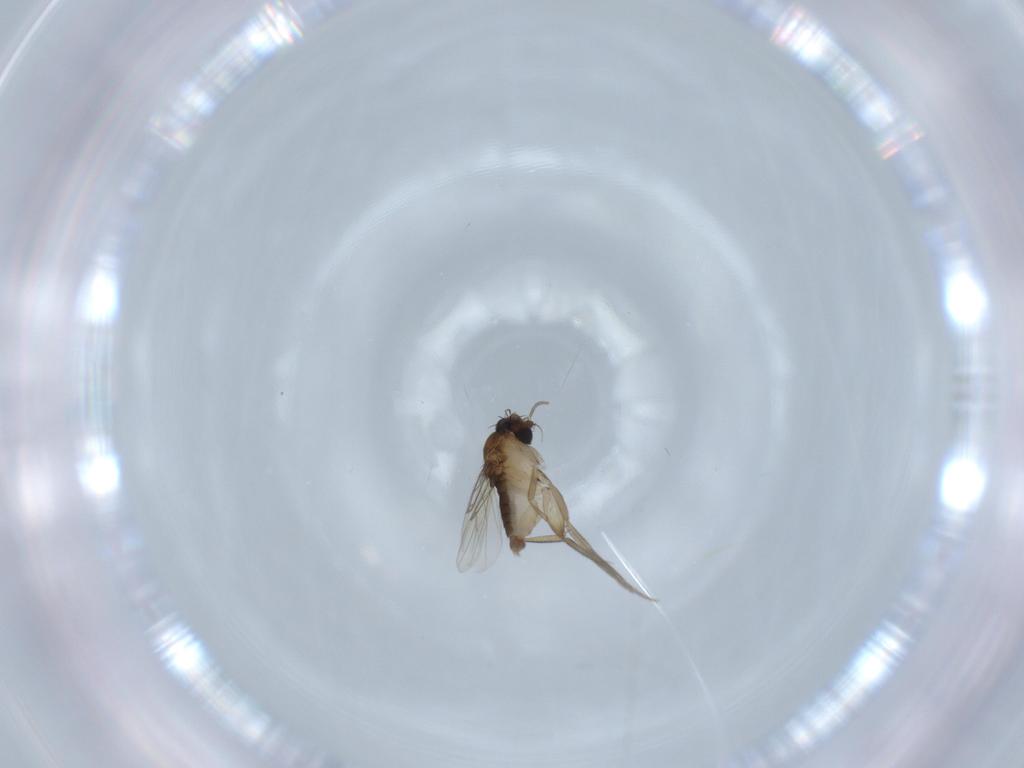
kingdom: Animalia
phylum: Arthropoda
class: Insecta
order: Diptera
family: Phoridae
